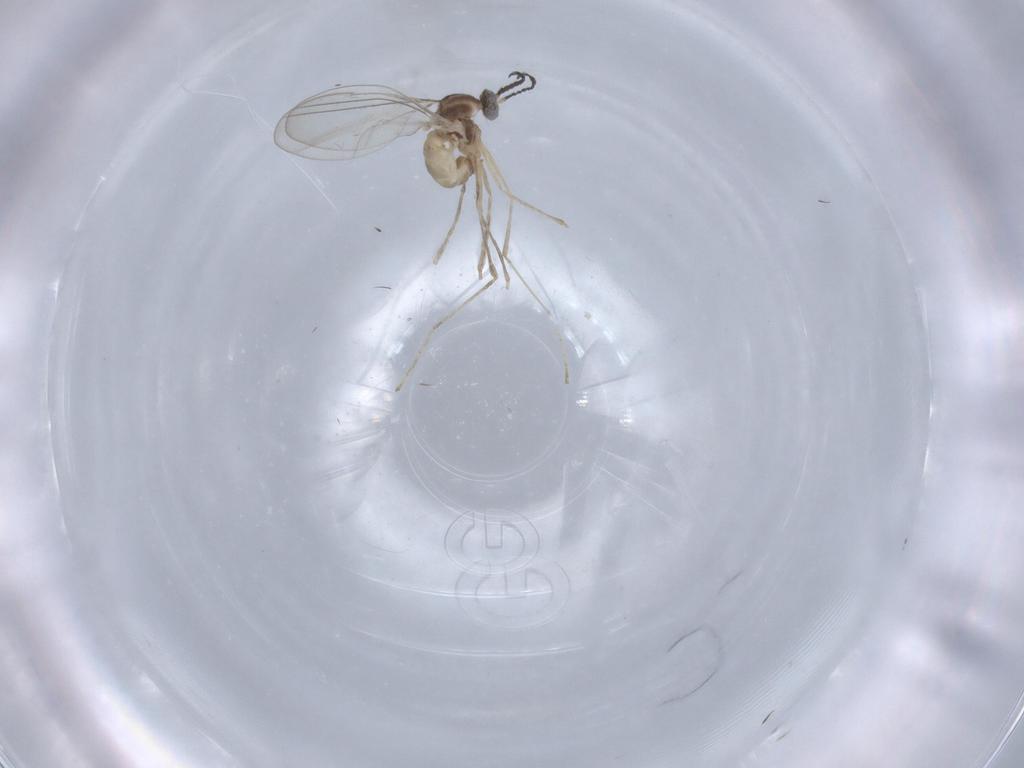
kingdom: Animalia
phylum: Arthropoda
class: Insecta
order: Diptera
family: Cecidomyiidae
